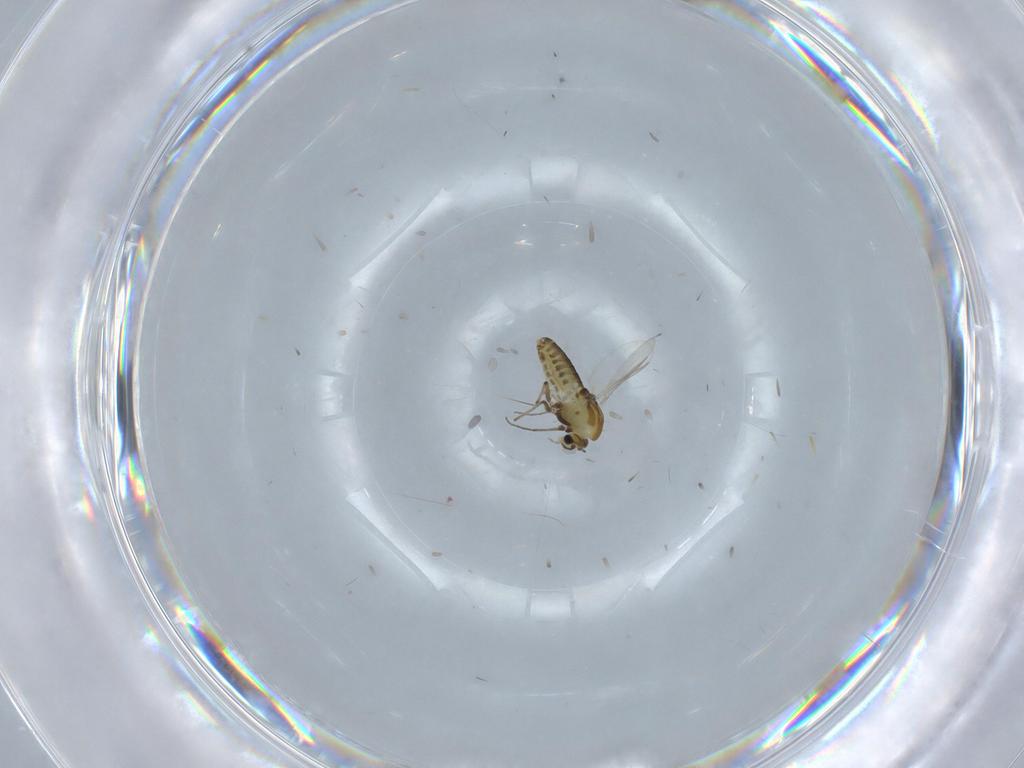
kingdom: Animalia
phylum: Arthropoda
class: Insecta
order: Diptera
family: Chironomidae
